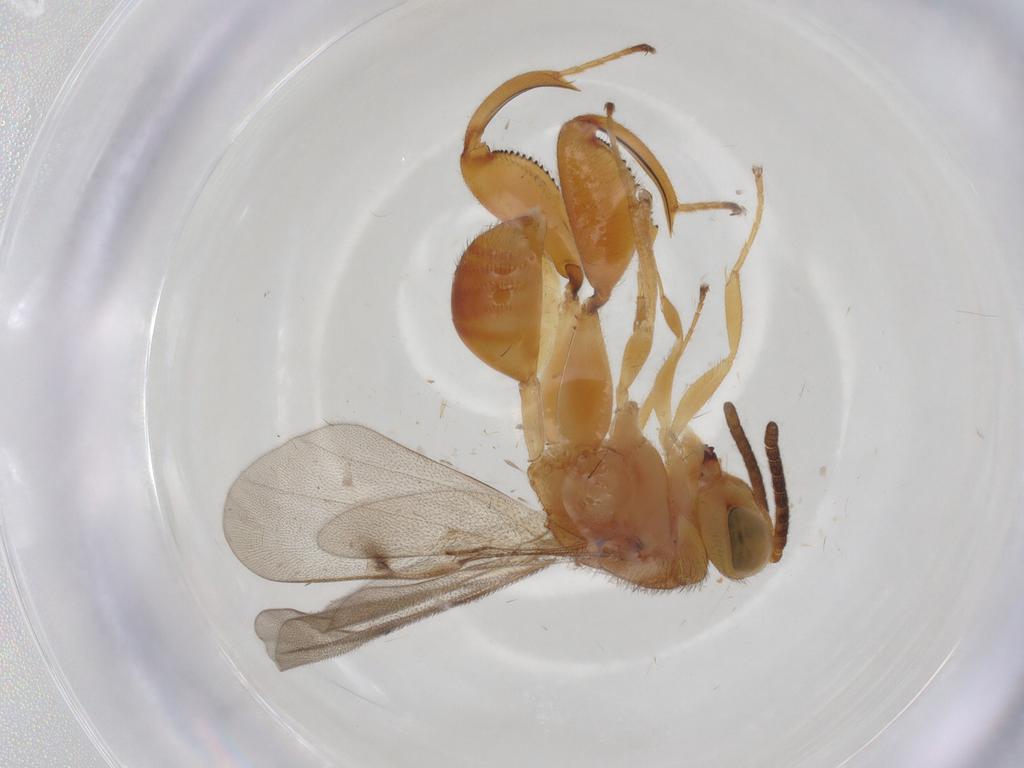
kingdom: Animalia
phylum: Arthropoda
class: Insecta
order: Hymenoptera
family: Chalcididae
